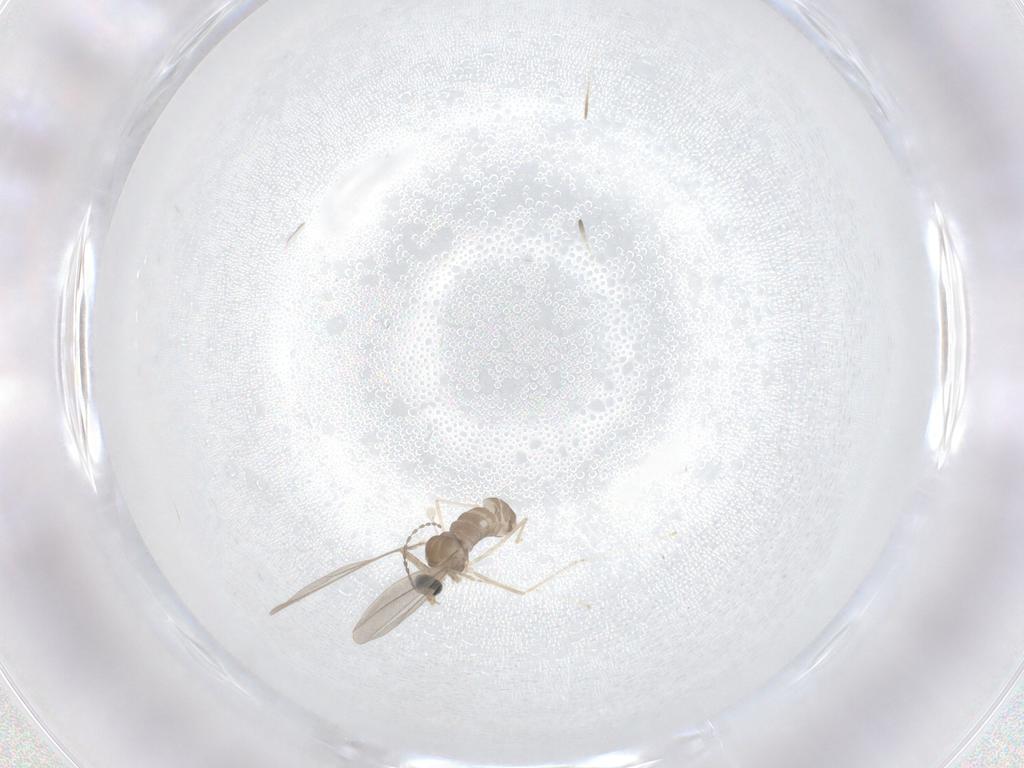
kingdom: Animalia
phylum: Arthropoda
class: Insecta
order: Diptera
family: Cecidomyiidae
